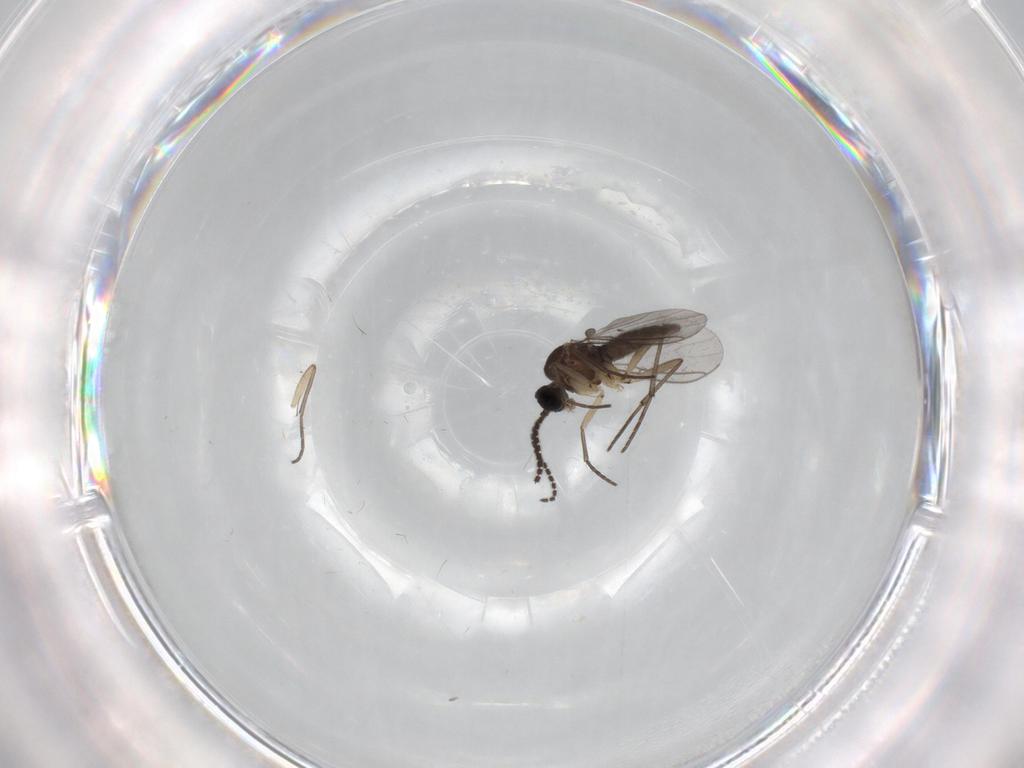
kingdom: Animalia
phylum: Arthropoda
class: Insecta
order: Diptera
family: Sciaridae
